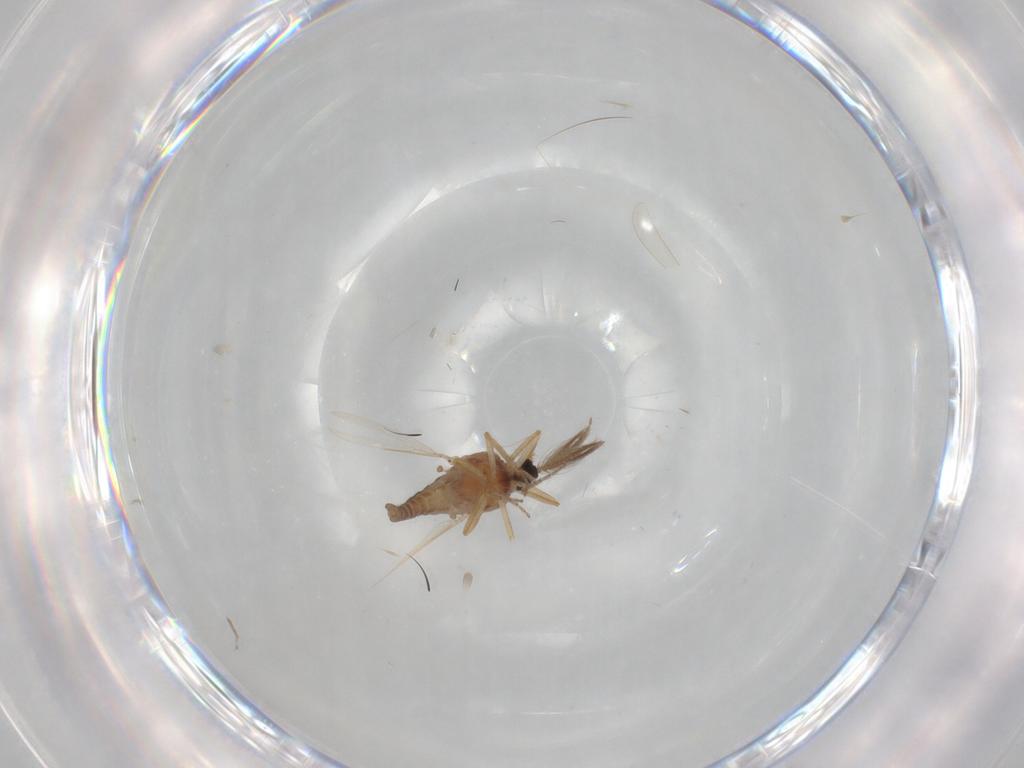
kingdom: Animalia
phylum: Arthropoda
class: Insecta
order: Diptera
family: Ceratopogonidae
